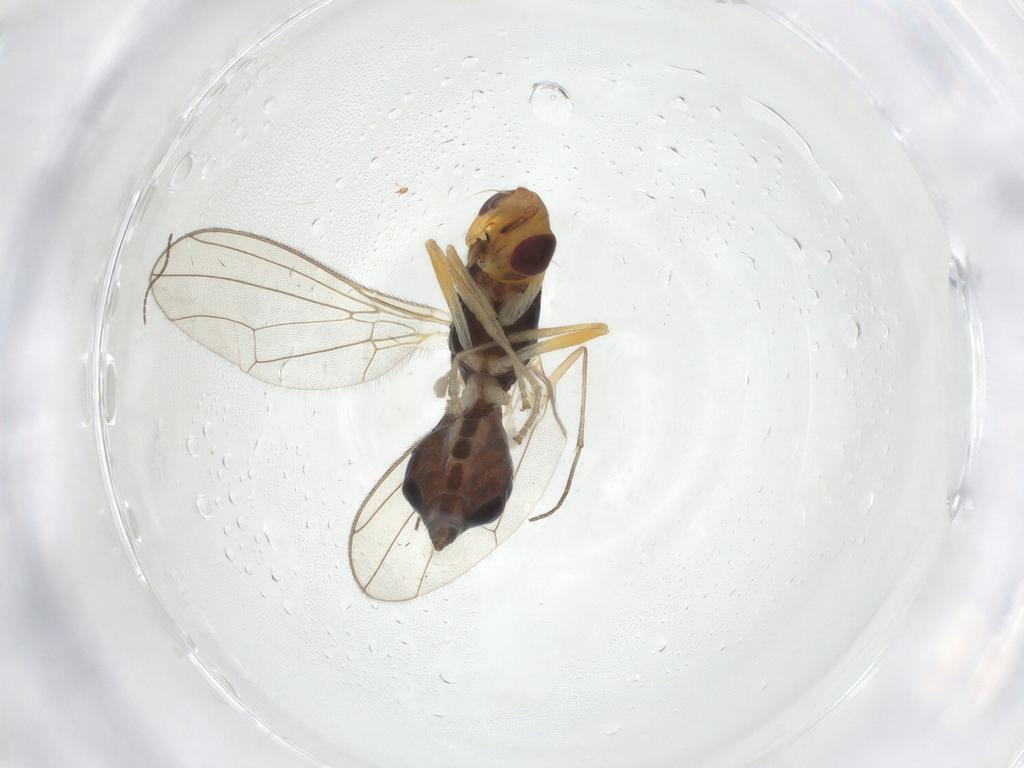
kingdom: Animalia
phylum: Arthropoda
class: Insecta
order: Diptera
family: Sciaridae
